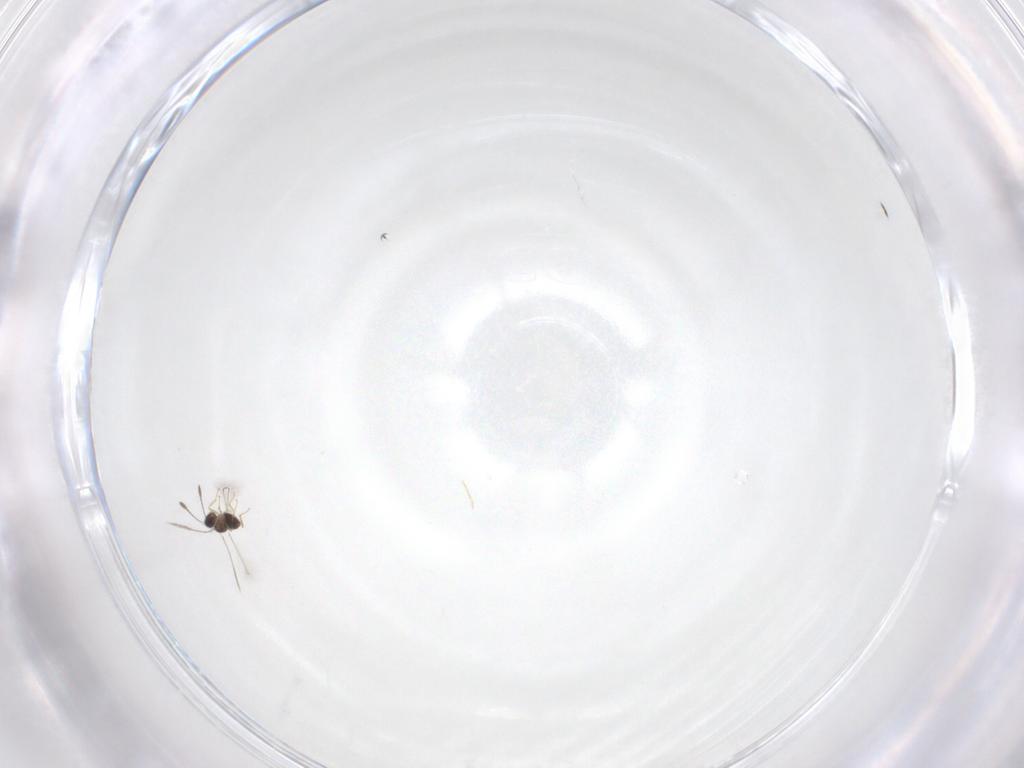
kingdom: Animalia
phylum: Arthropoda
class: Insecta
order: Hymenoptera
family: Mymaridae
